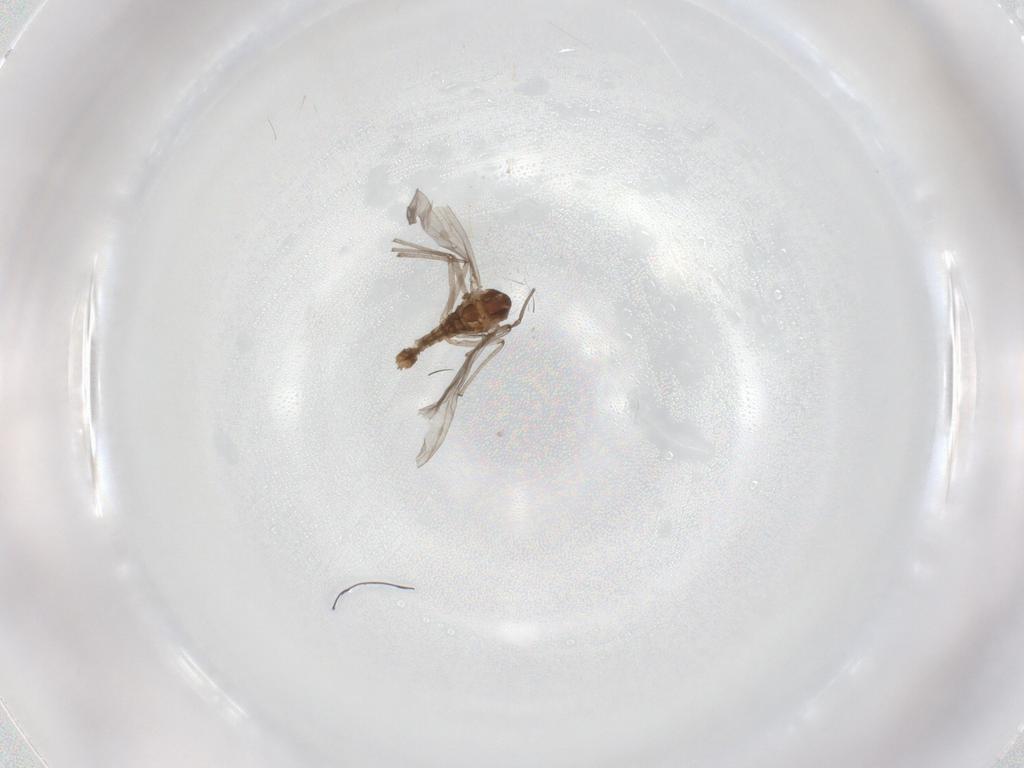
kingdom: Animalia
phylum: Arthropoda
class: Insecta
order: Diptera
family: Chironomidae
